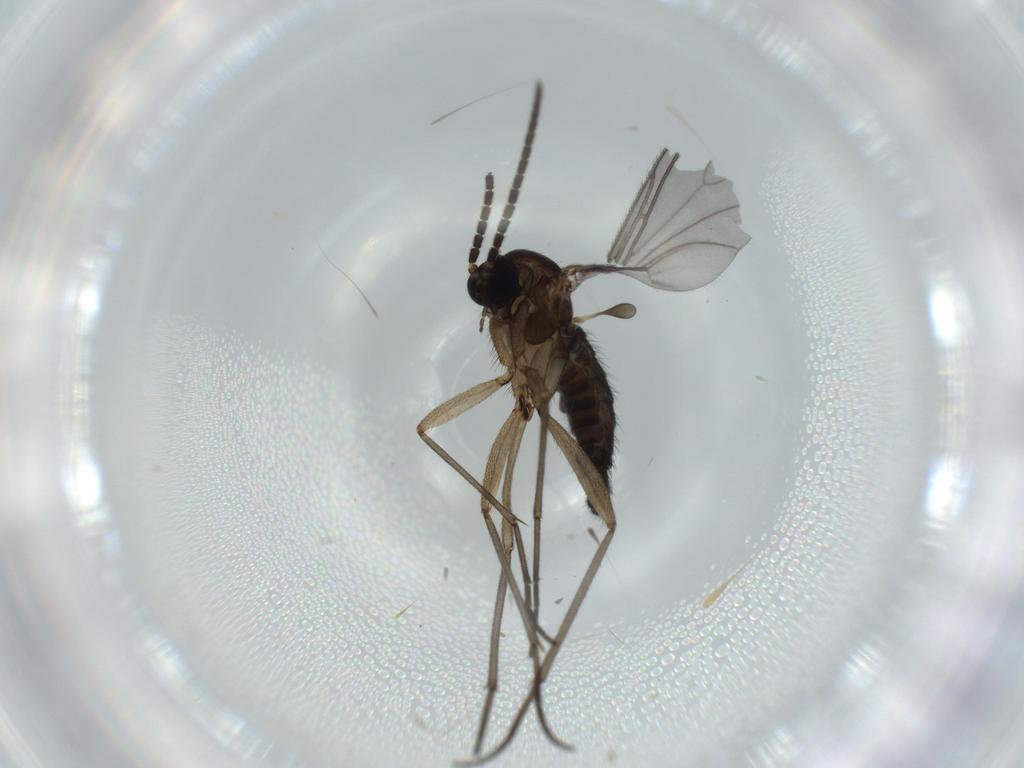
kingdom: Animalia
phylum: Arthropoda
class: Insecta
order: Diptera
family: Sciaridae
